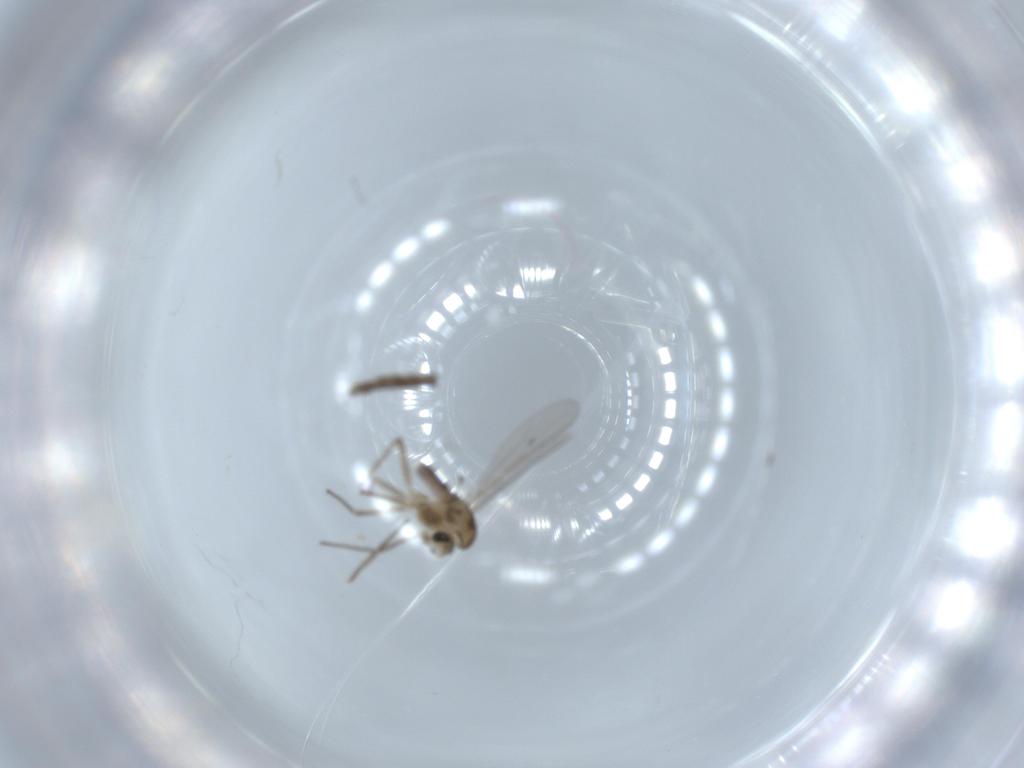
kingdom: Animalia
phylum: Arthropoda
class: Insecta
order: Diptera
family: Chironomidae
